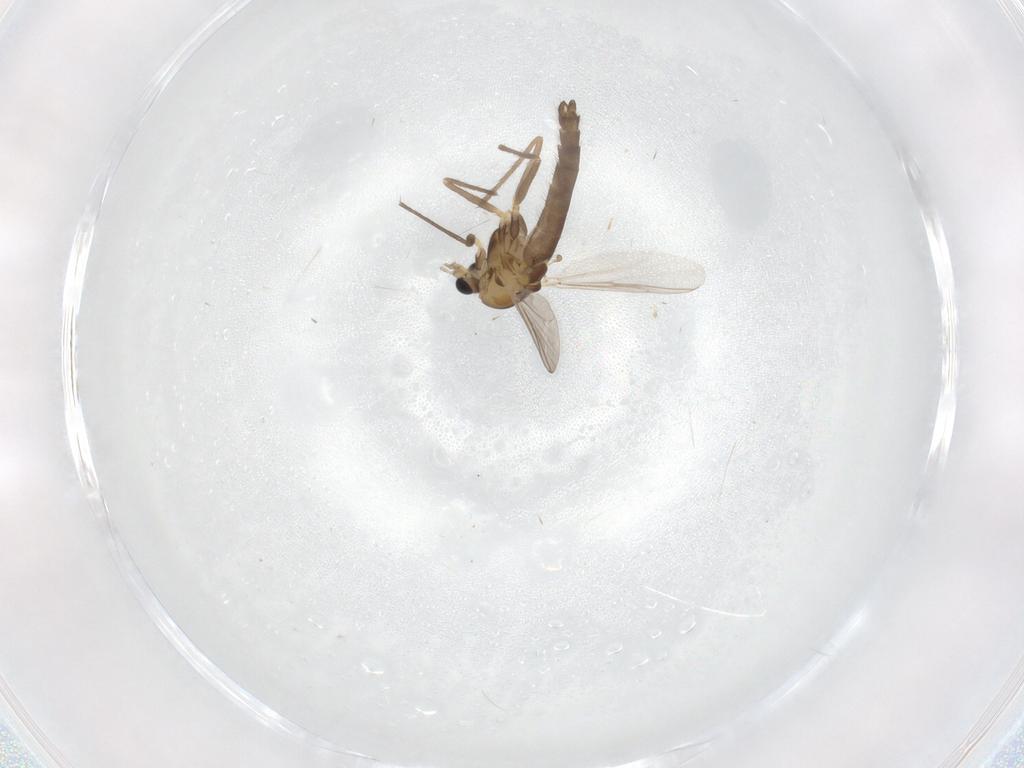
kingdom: Animalia
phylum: Arthropoda
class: Insecta
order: Diptera
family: Chironomidae
